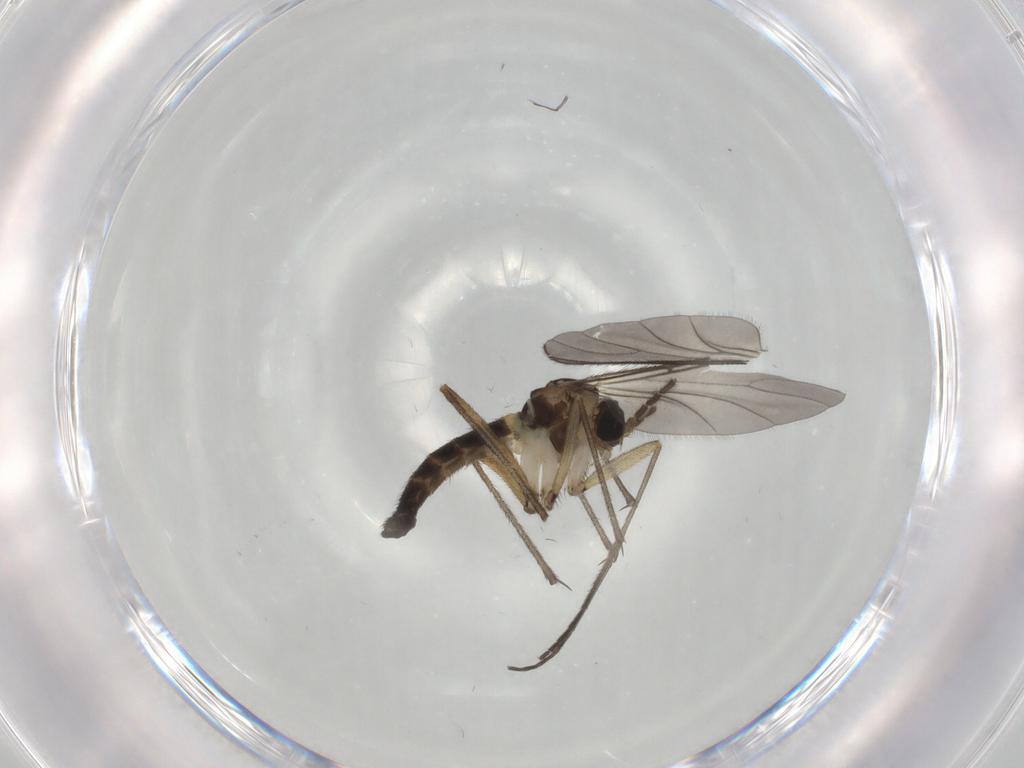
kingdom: Animalia
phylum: Arthropoda
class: Insecta
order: Diptera
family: Sciaridae
